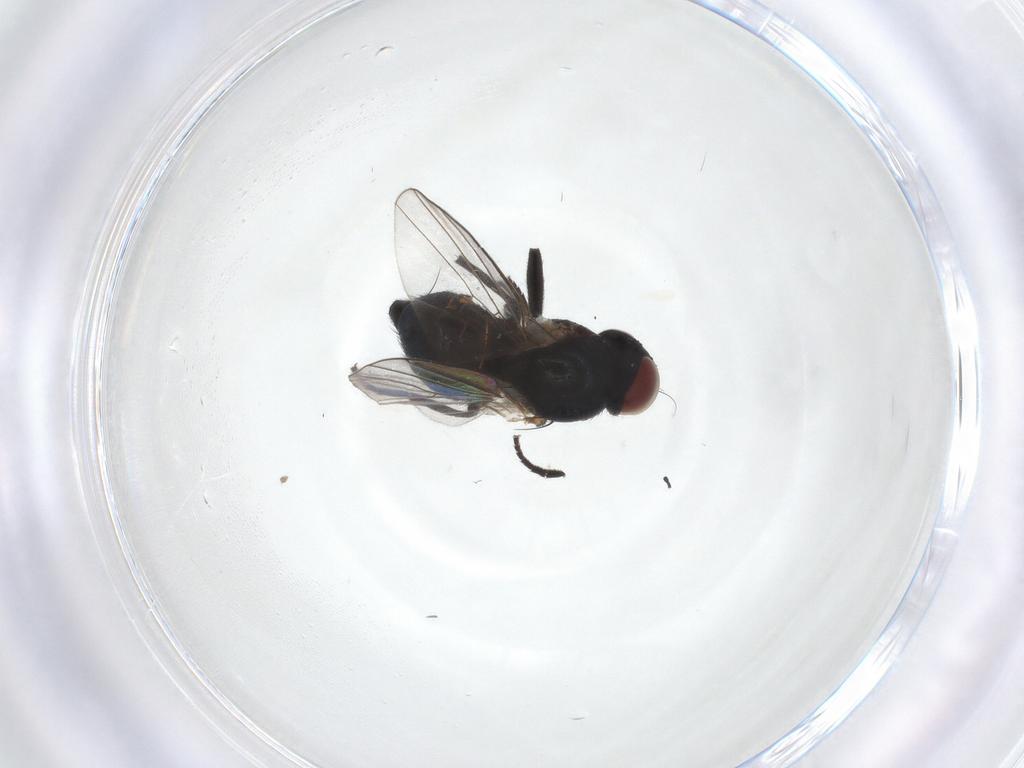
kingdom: Animalia
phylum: Arthropoda
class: Insecta
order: Diptera
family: Agromyzidae
